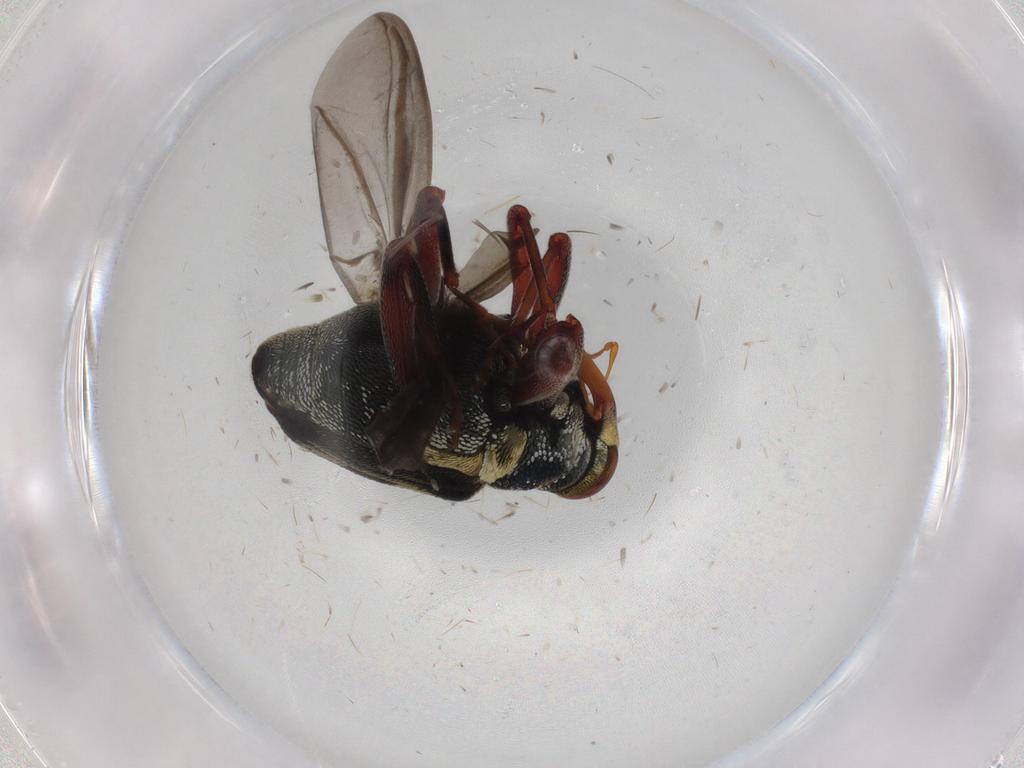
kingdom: Animalia
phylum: Arthropoda
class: Insecta
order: Coleoptera
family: Curculionidae
